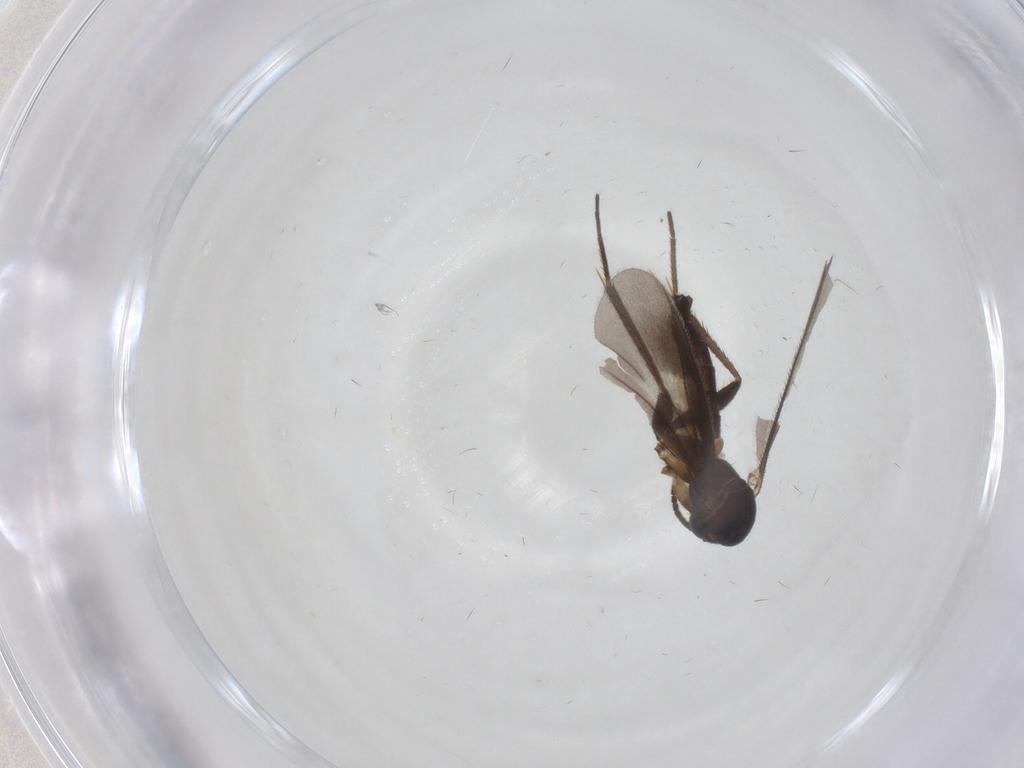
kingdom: Animalia
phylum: Arthropoda
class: Insecta
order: Diptera
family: Mycetophilidae
